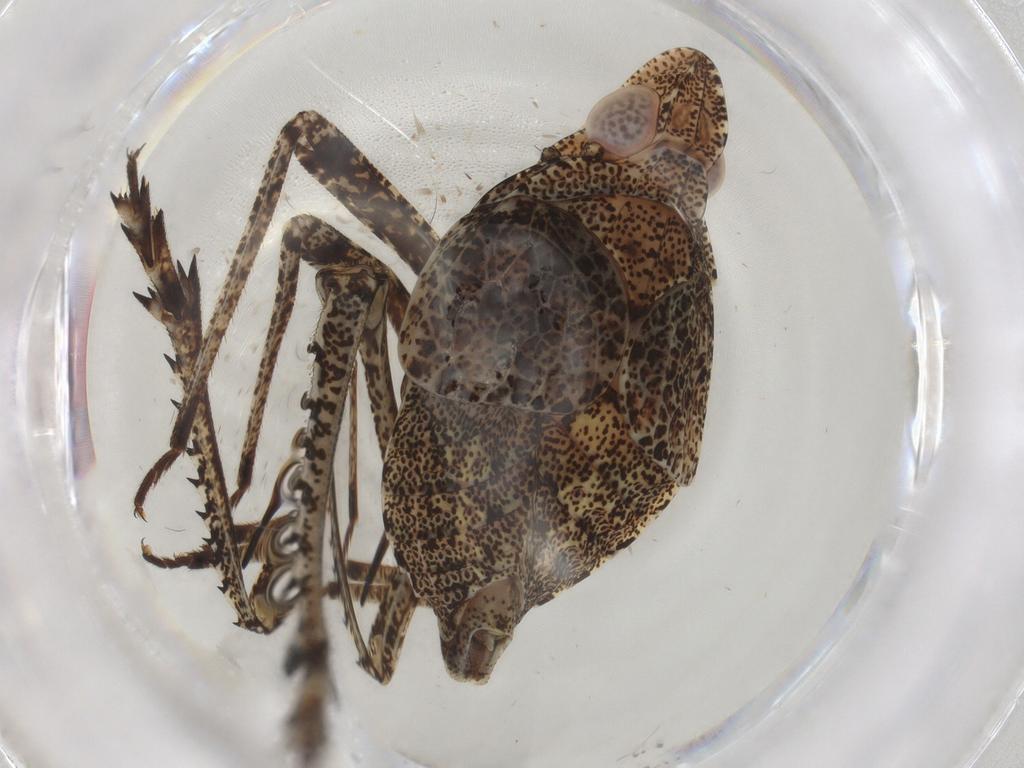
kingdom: Animalia
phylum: Arthropoda
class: Insecta
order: Hemiptera
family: Dictyopharidae
